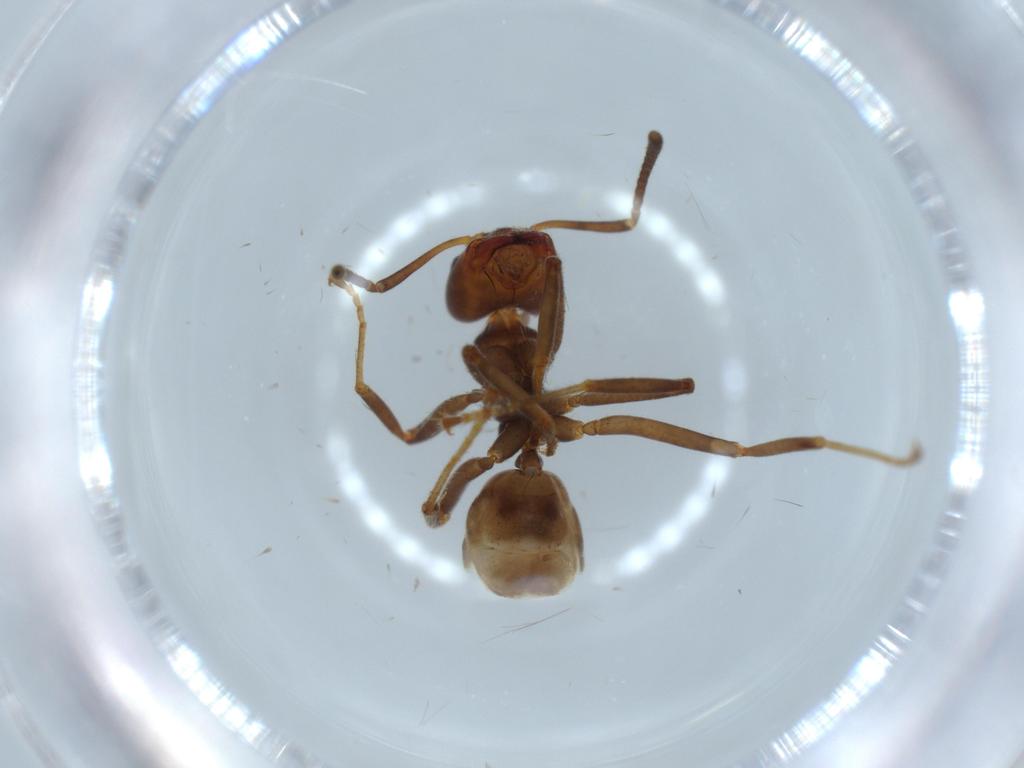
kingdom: Animalia
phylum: Arthropoda
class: Insecta
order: Hymenoptera
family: Formicidae
